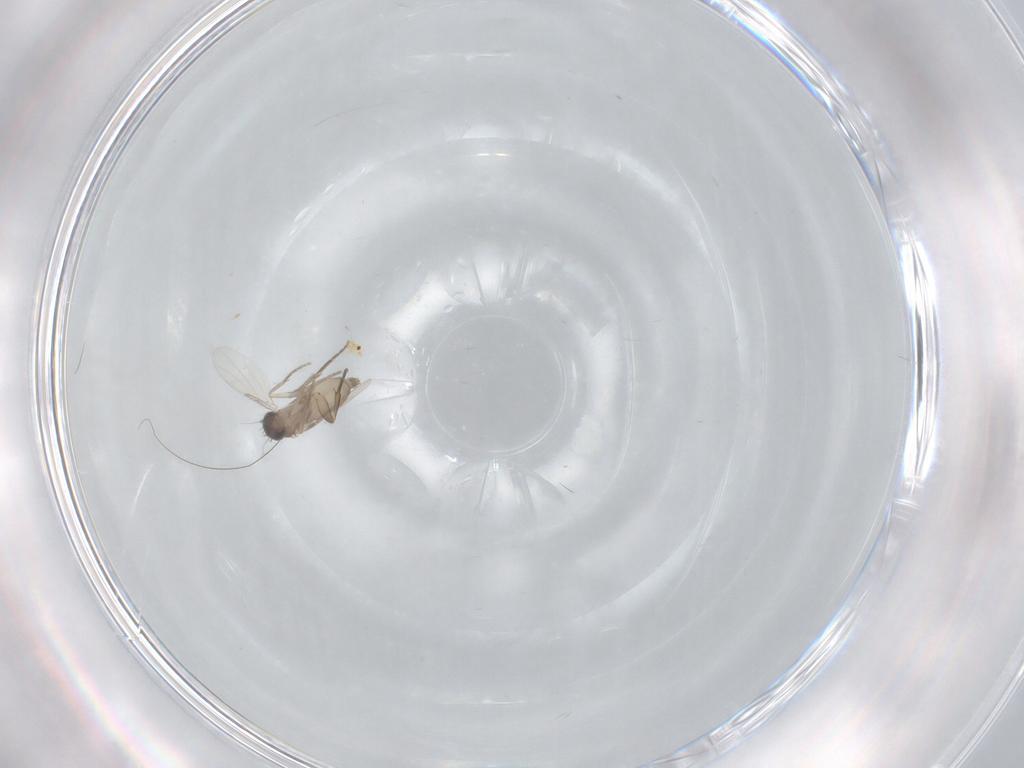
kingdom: Animalia
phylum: Arthropoda
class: Insecta
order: Diptera
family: Phoridae
